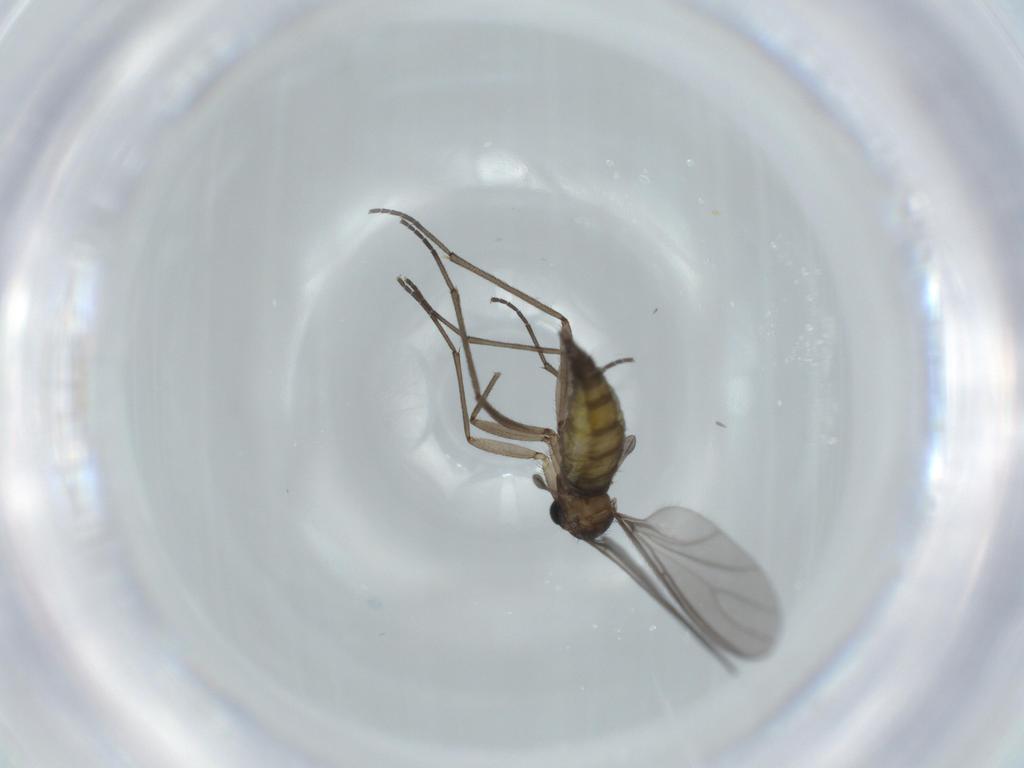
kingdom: Animalia
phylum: Arthropoda
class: Insecta
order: Diptera
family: Sciaridae
